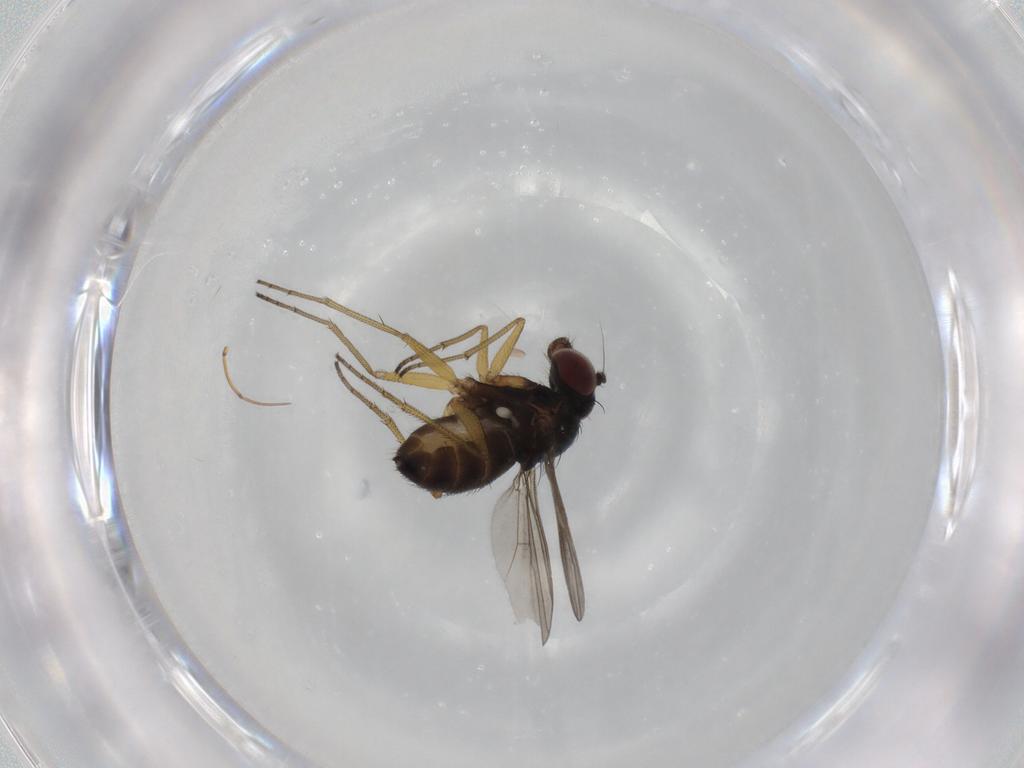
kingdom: Animalia
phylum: Arthropoda
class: Insecta
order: Diptera
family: Dolichopodidae
